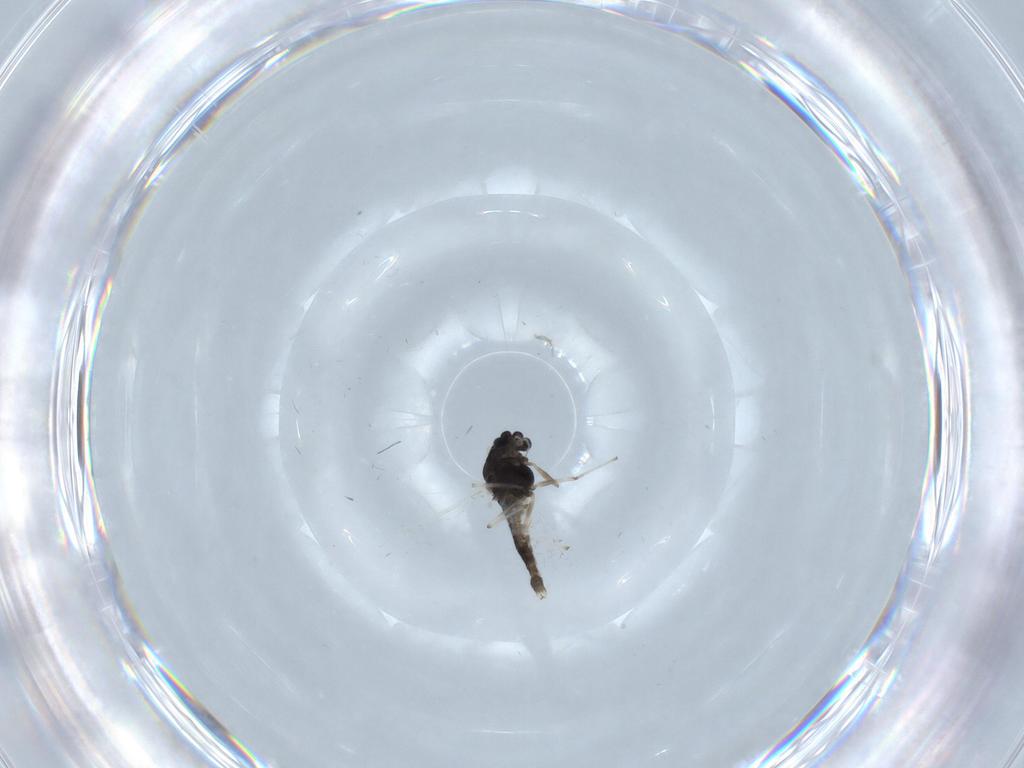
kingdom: Animalia
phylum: Arthropoda
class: Insecta
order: Diptera
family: Chironomidae
